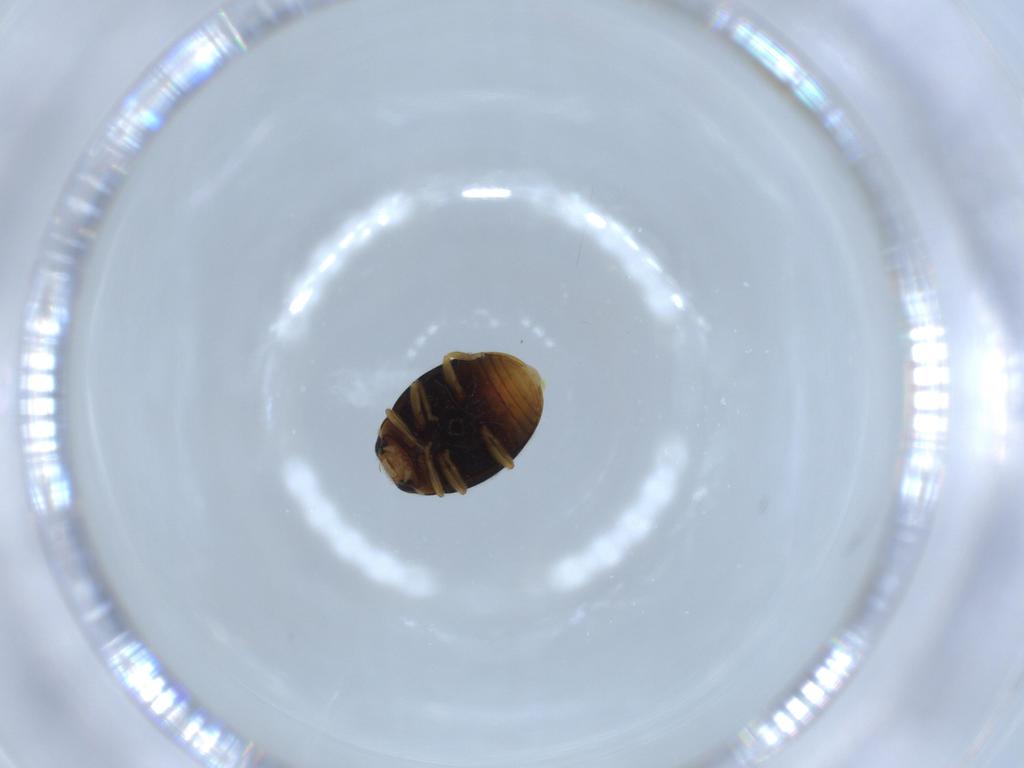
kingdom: Animalia
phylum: Arthropoda
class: Insecta
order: Coleoptera
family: Coccinellidae
